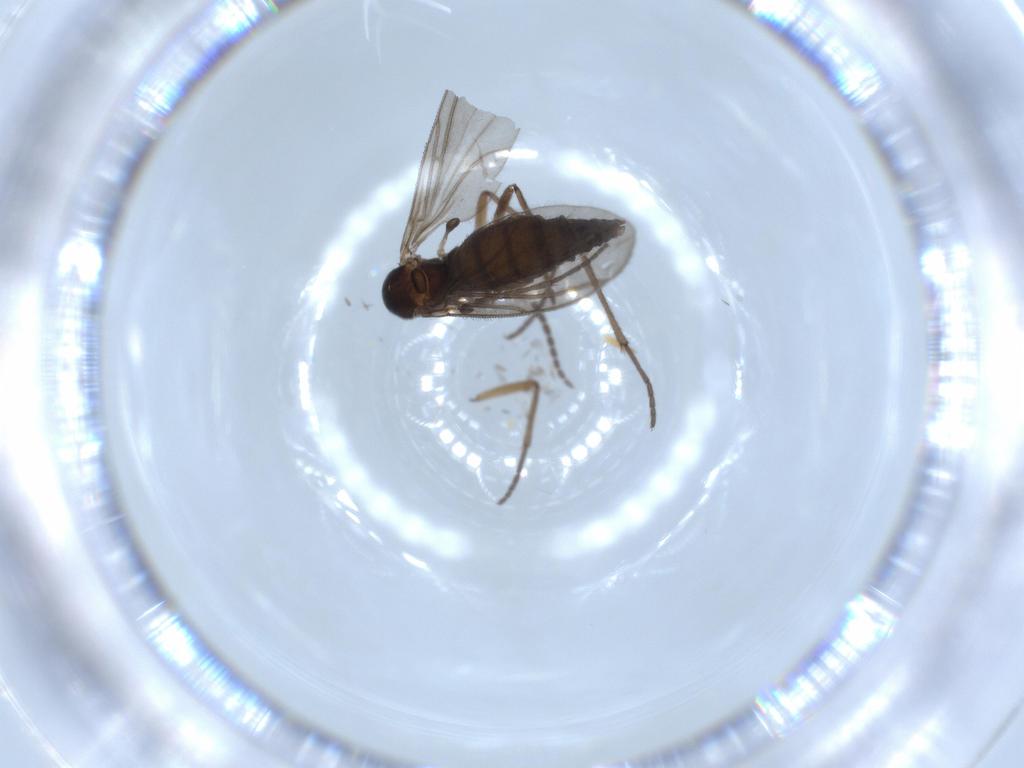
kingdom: Animalia
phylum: Arthropoda
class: Insecta
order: Diptera
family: Sciaridae
